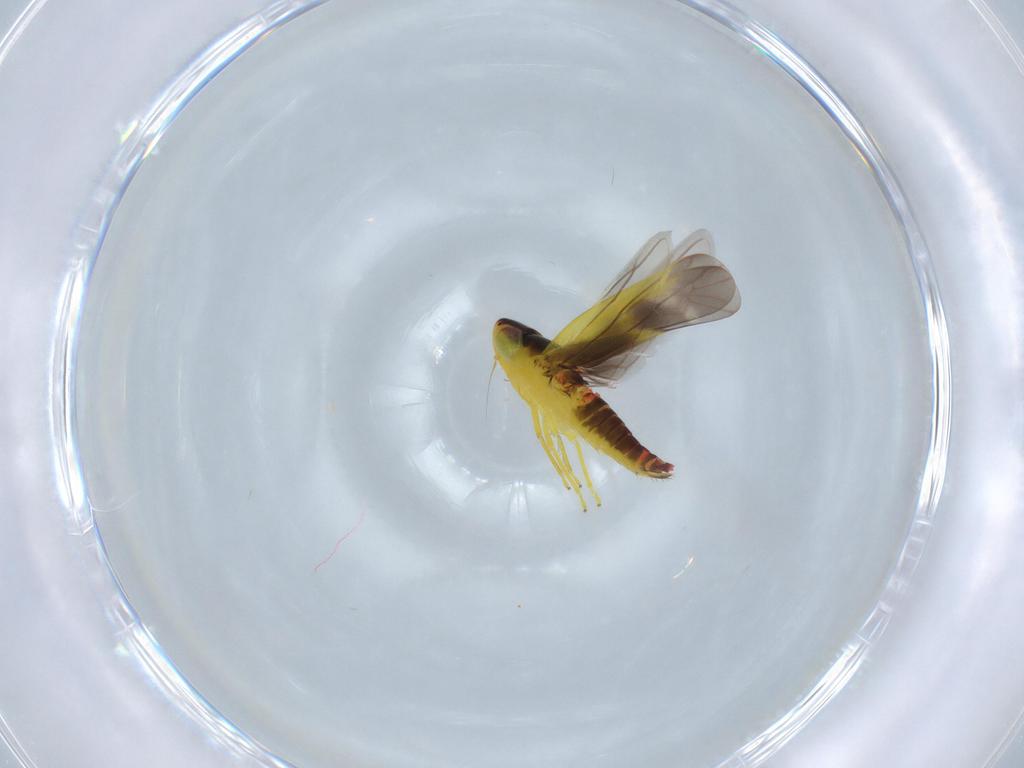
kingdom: Animalia
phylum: Arthropoda
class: Insecta
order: Hemiptera
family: Cicadellidae
